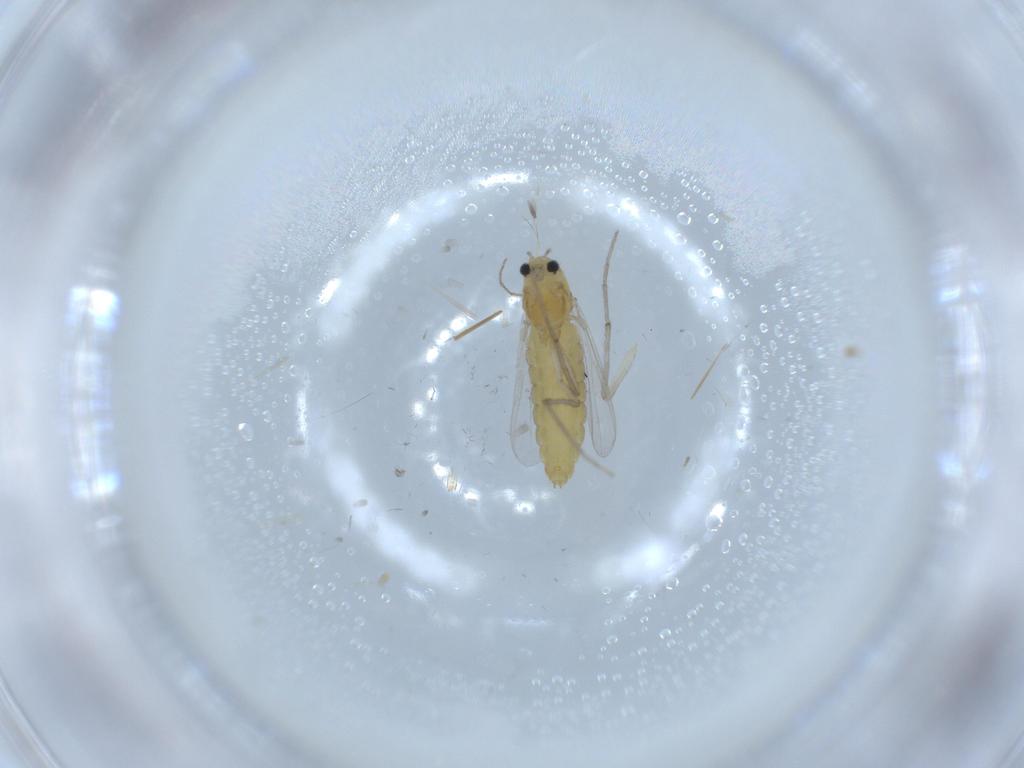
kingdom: Animalia
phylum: Arthropoda
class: Insecta
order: Diptera
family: Chironomidae
